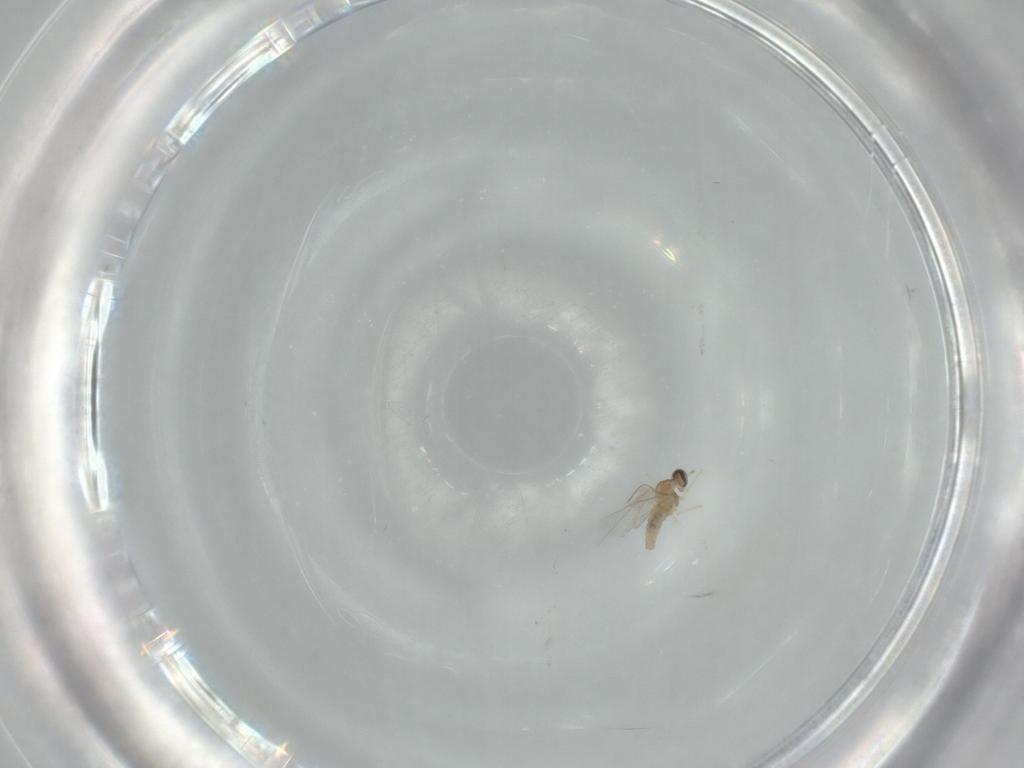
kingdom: Animalia
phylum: Arthropoda
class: Insecta
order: Diptera
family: Cecidomyiidae
